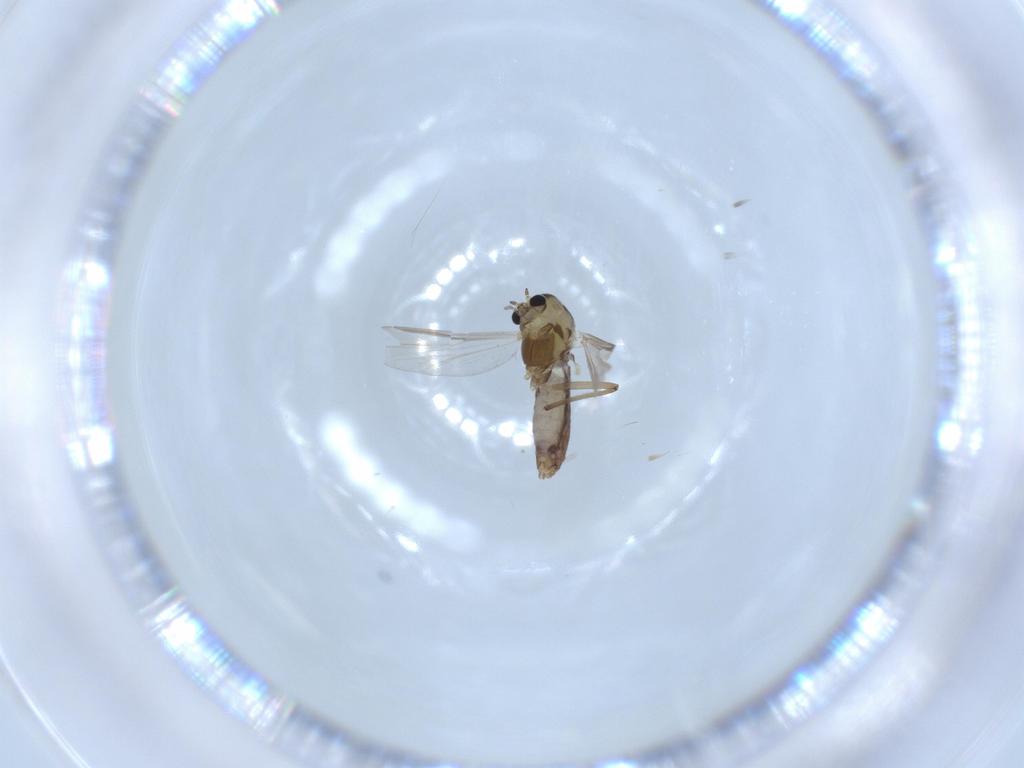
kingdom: Animalia
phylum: Arthropoda
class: Insecta
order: Diptera
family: Chironomidae
